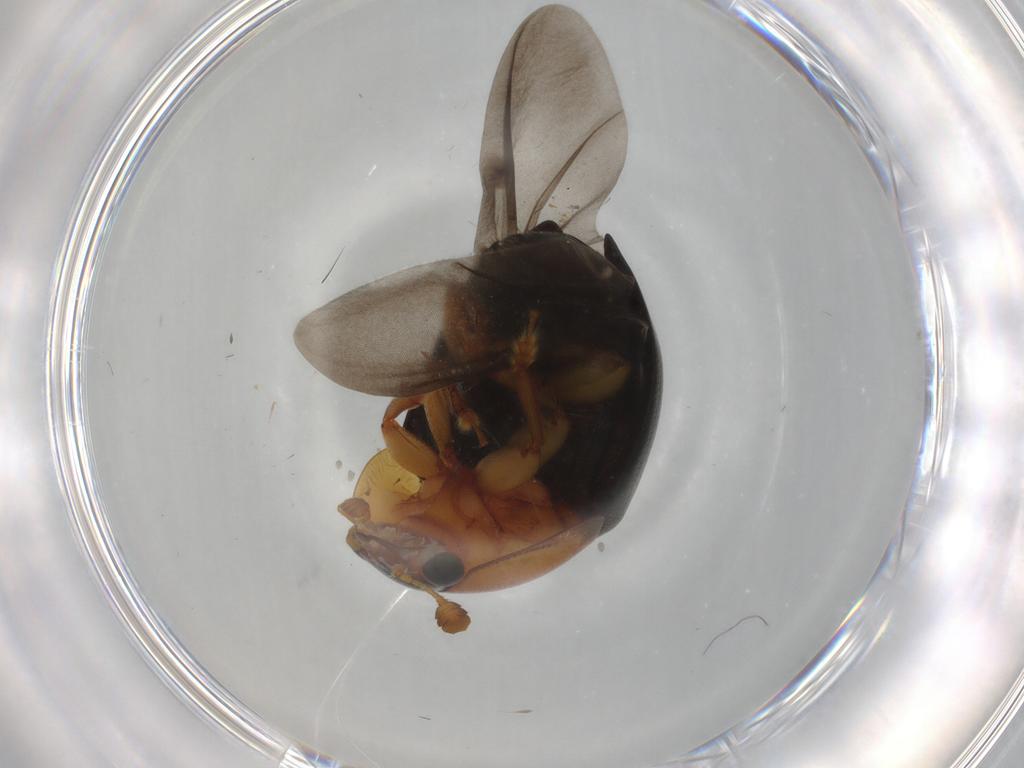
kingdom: Animalia
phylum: Arthropoda
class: Insecta
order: Coleoptera
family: Nitidulidae
